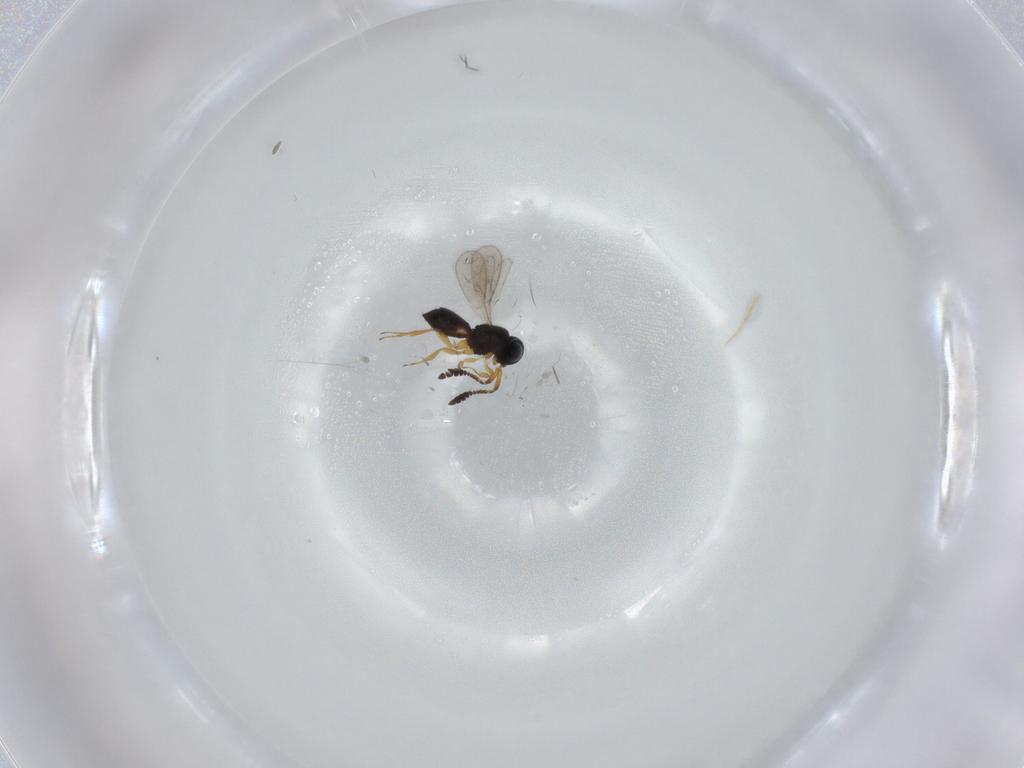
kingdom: Animalia
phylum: Arthropoda
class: Insecta
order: Hymenoptera
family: Scelionidae
